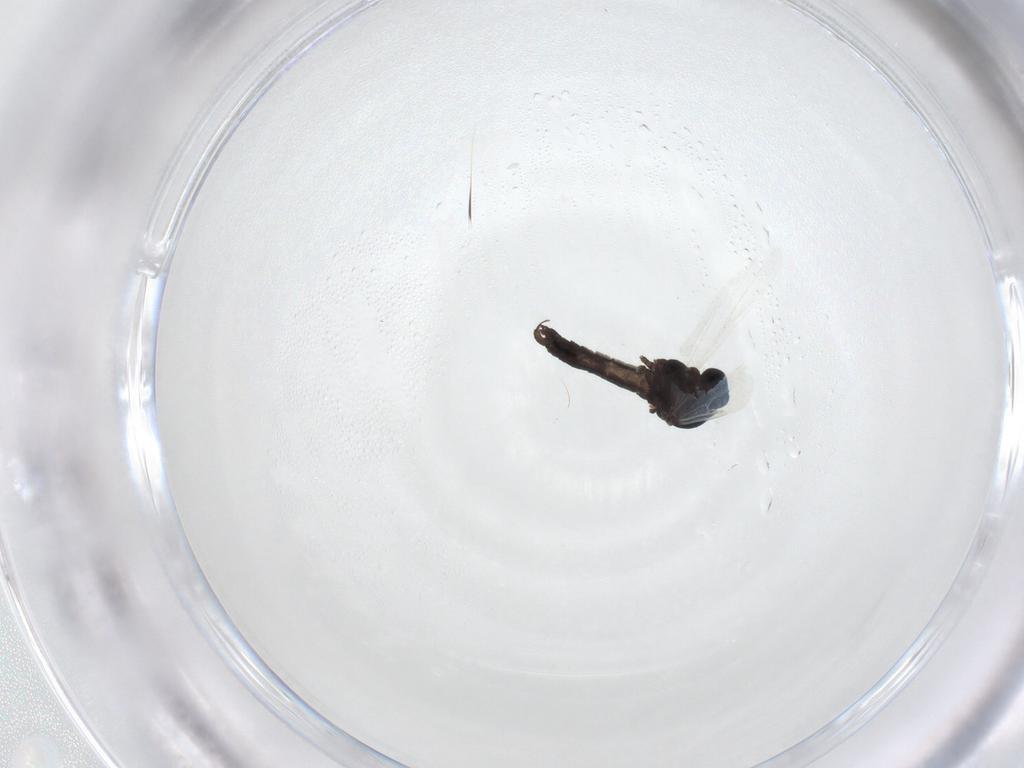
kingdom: Animalia
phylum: Arthropoda
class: Insecta
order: Diptera
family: Ceratopogonidae
